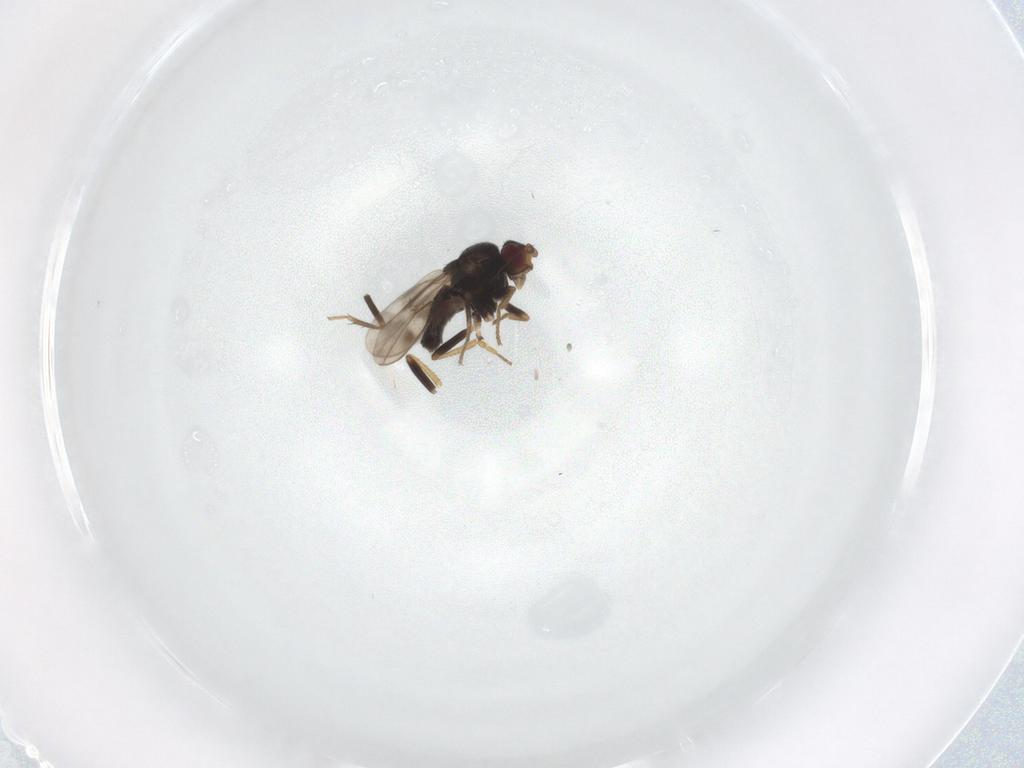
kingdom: Animalia
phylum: Arthropoda
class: Insecta
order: Diptera
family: Sphaeroceridae
